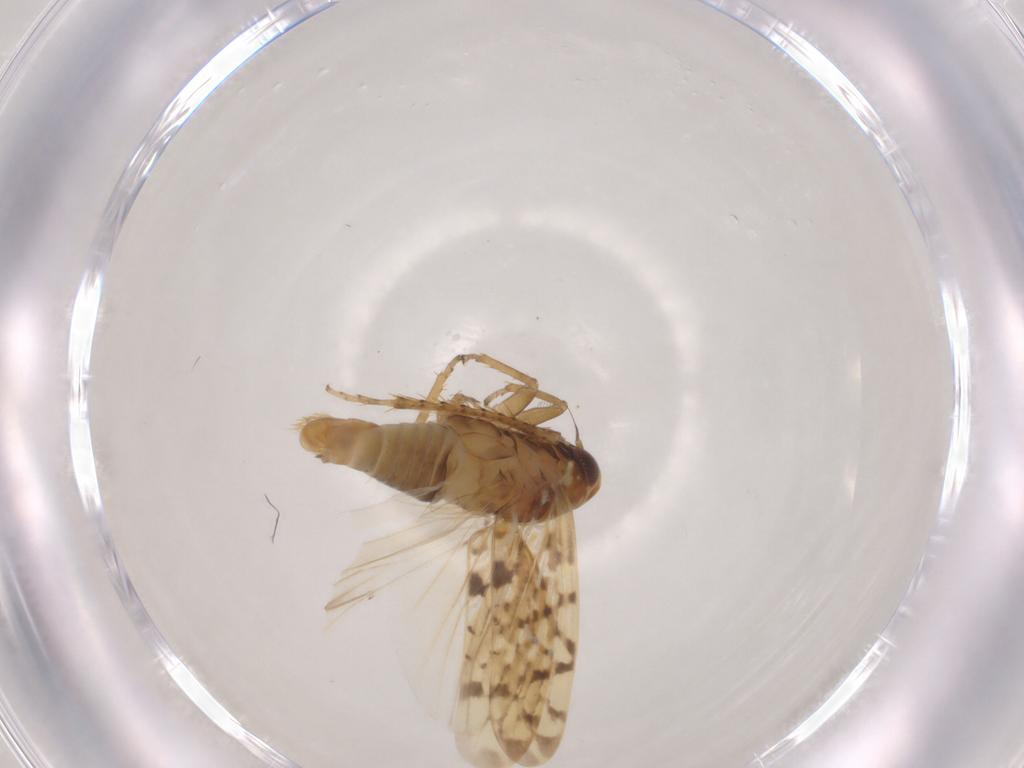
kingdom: Animalia
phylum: Arthropoda
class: Insecta
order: Hemiptera
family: Cicadellidae
